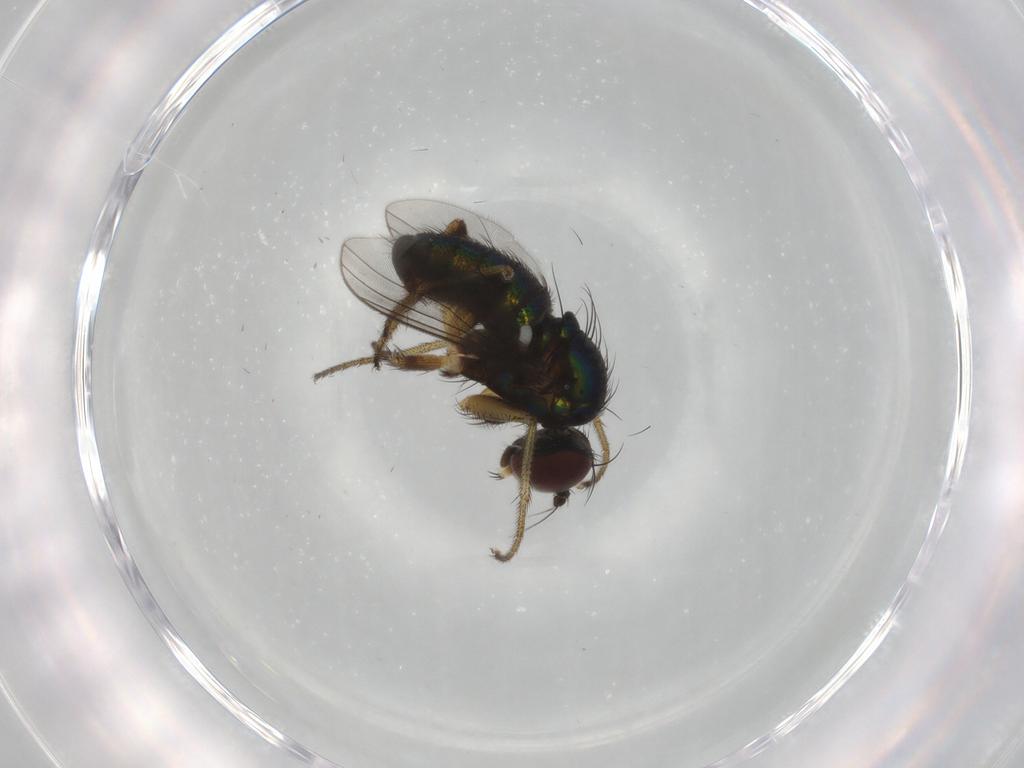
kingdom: Animalia
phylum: Arthropoda
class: Insecta
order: Diptera
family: Dolichopodidae
